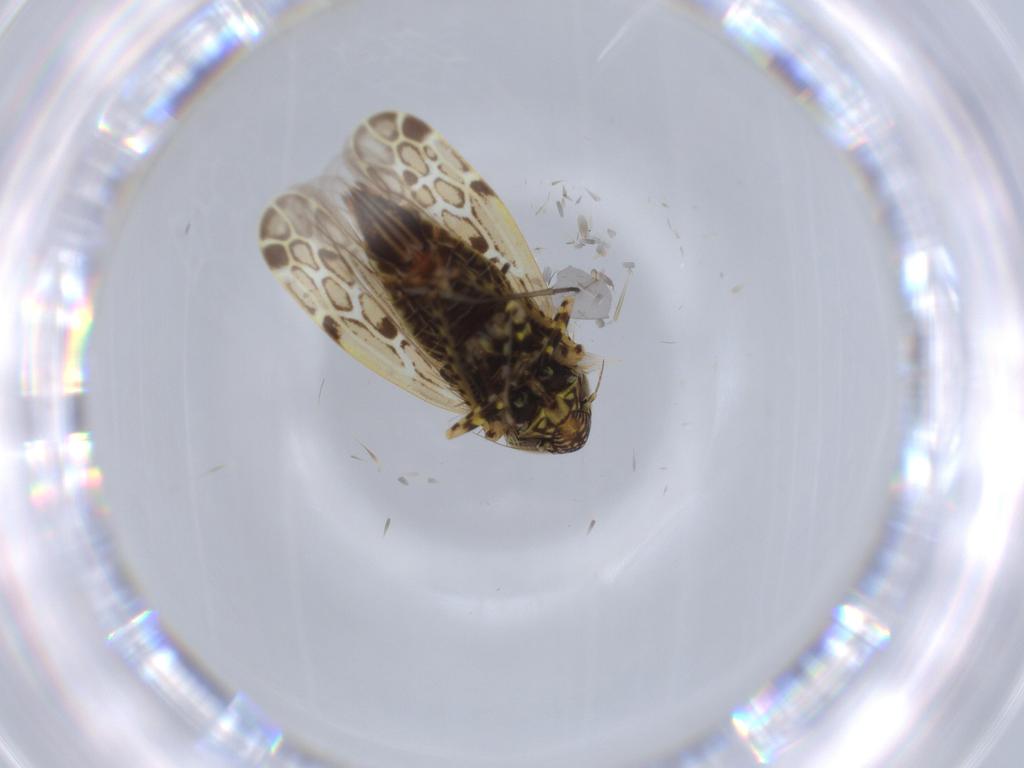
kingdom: Animalia
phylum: Arthropoda
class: Insecta
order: Hemiptera
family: Cicadellidae
